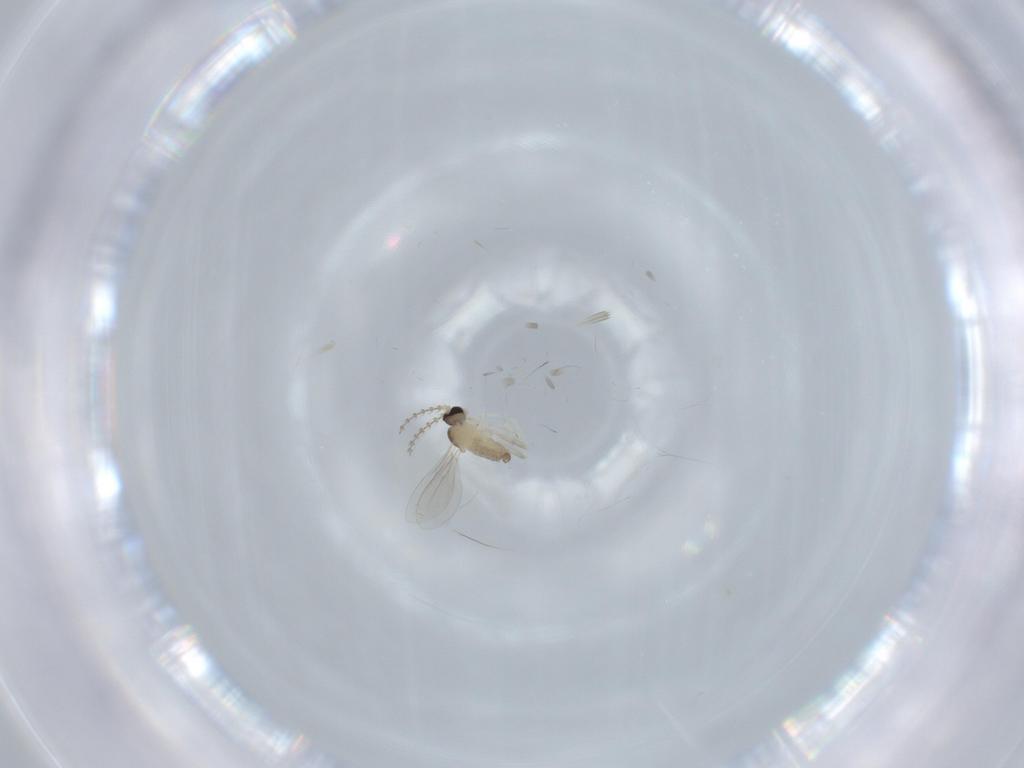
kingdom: Animalia
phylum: Arthropoda
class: Insecta
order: Diptera
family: Cecidomyiidae
